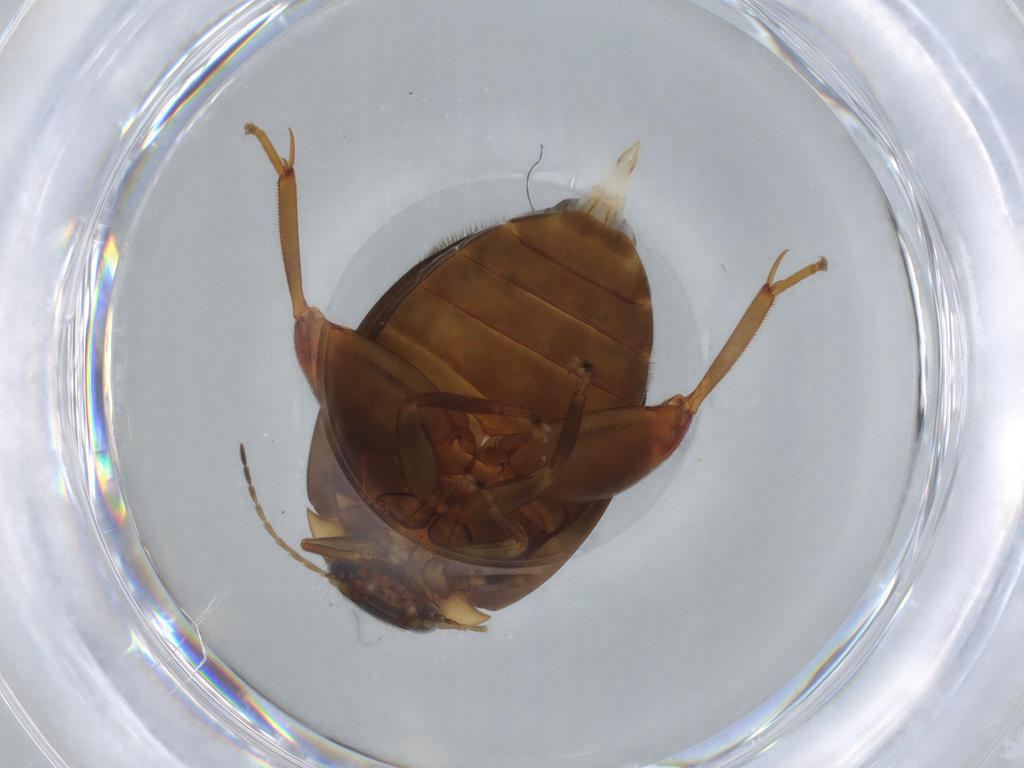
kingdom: Animalia
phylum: Arthropoda
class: Insecta
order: Coleoptera
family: Scirtidae
